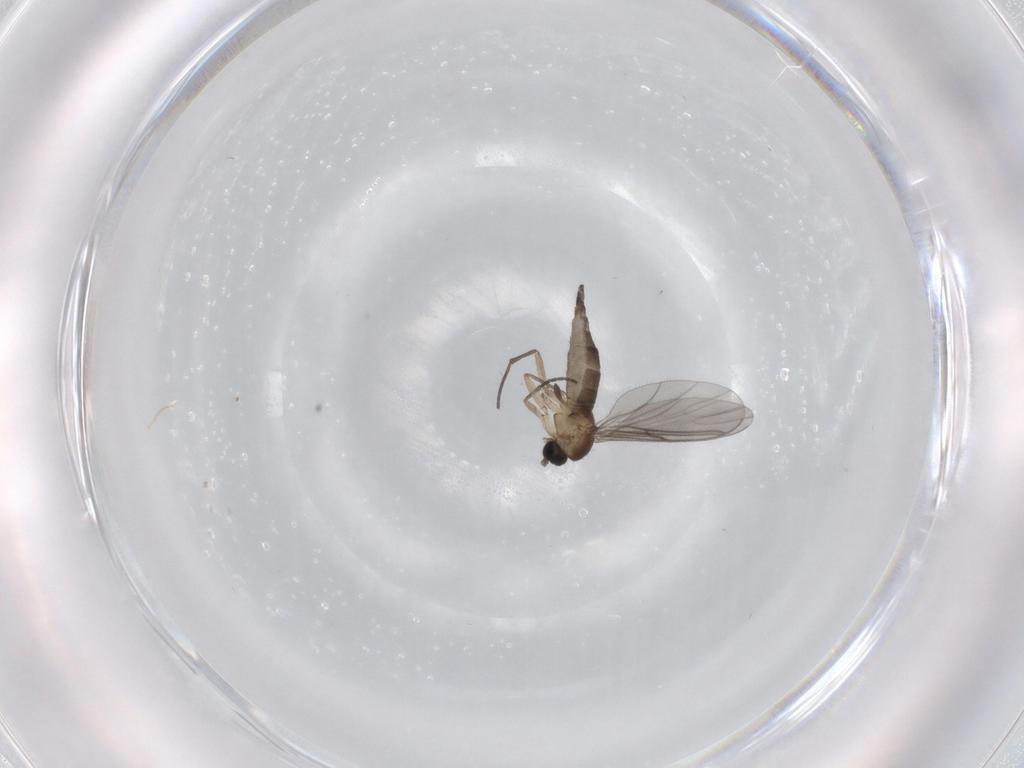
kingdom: Animalia
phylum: Arthropoda
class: Insecta
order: Diptera
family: Sciaridae
